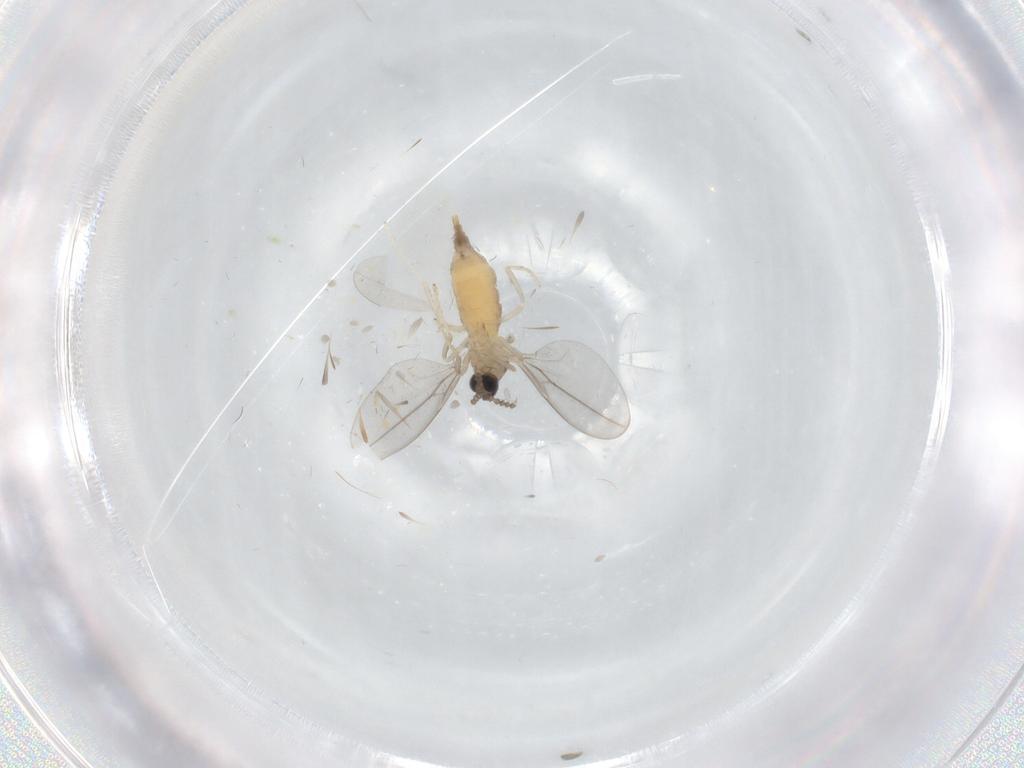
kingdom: Animalia
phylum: Arthropoda
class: Insecta
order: Diptera
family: Cecidomyiidae
